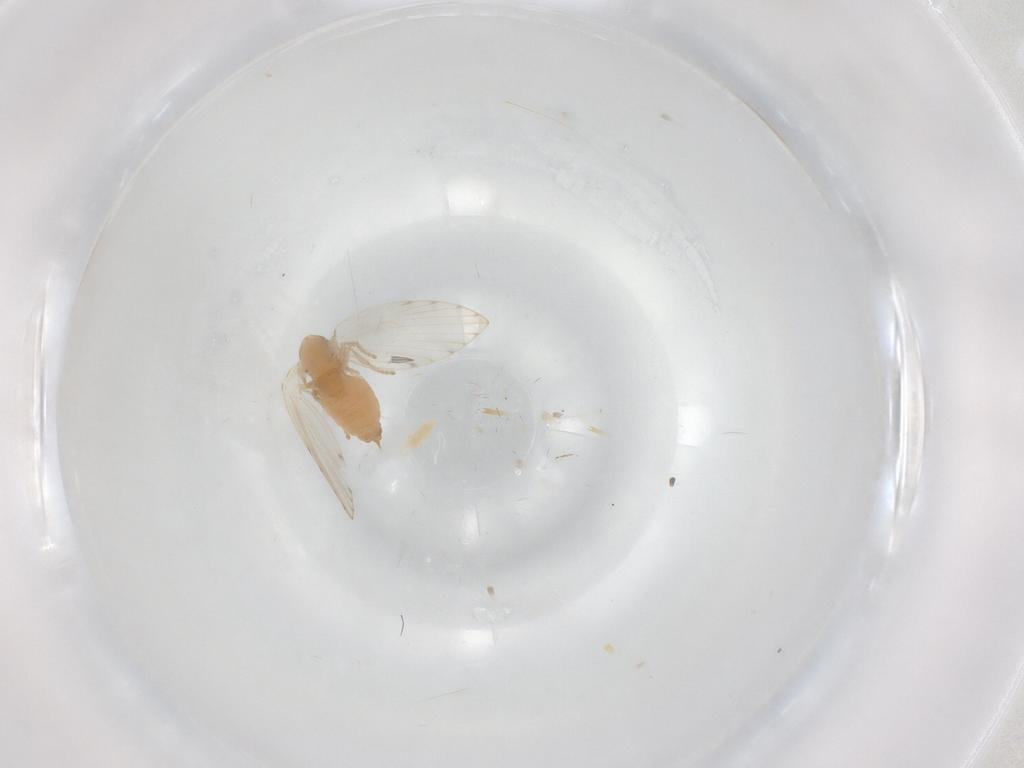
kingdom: Animalia
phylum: Arthropoda
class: Insecta
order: Diptera
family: Psychodidae
